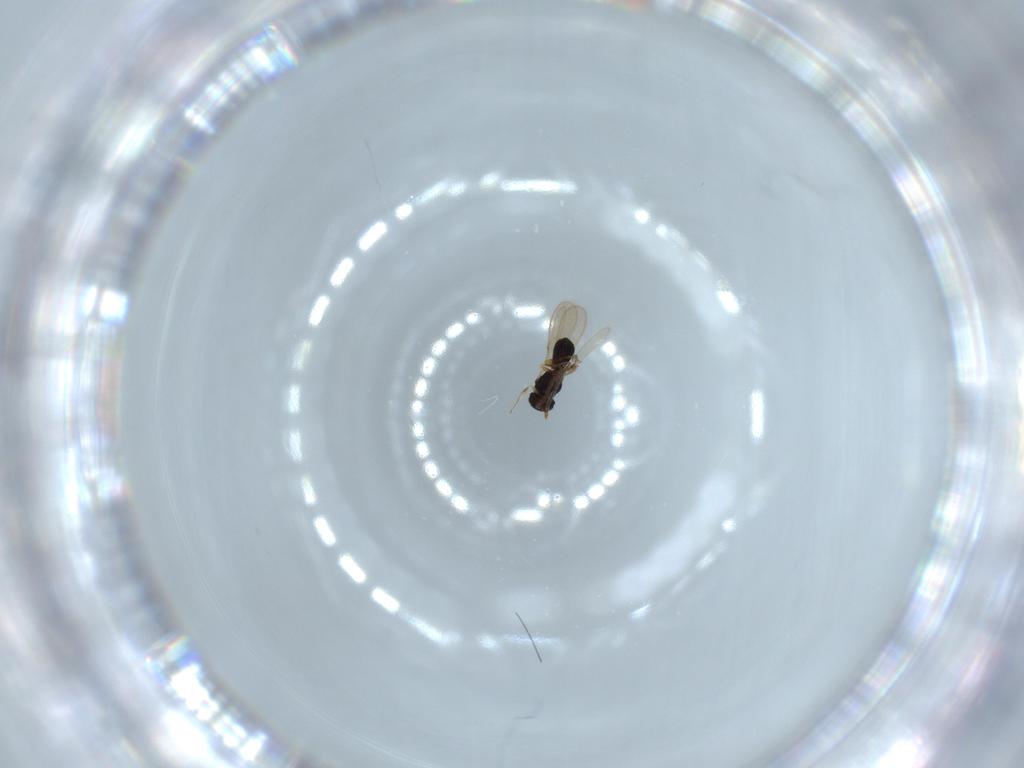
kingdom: Animalia
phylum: Arthropoda
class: Insecta
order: Hymenoptera
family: Scelionidae
